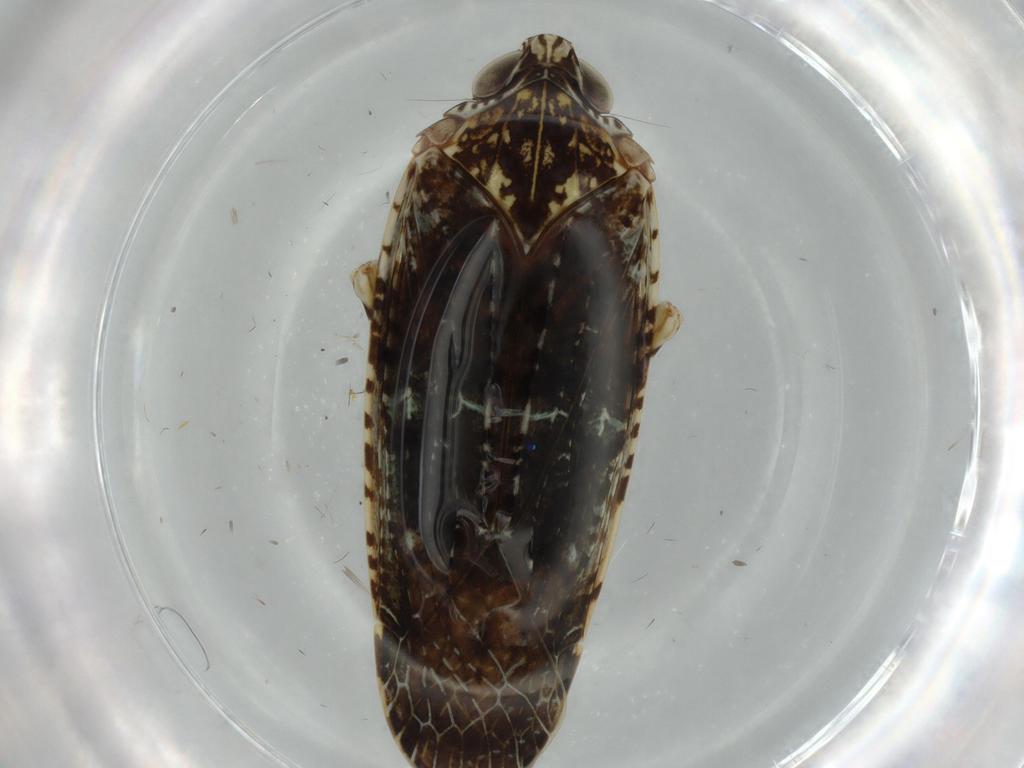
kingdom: Animalia
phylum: Arthropoda
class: Insecta
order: Hemiptera
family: Rhyparochromidae
